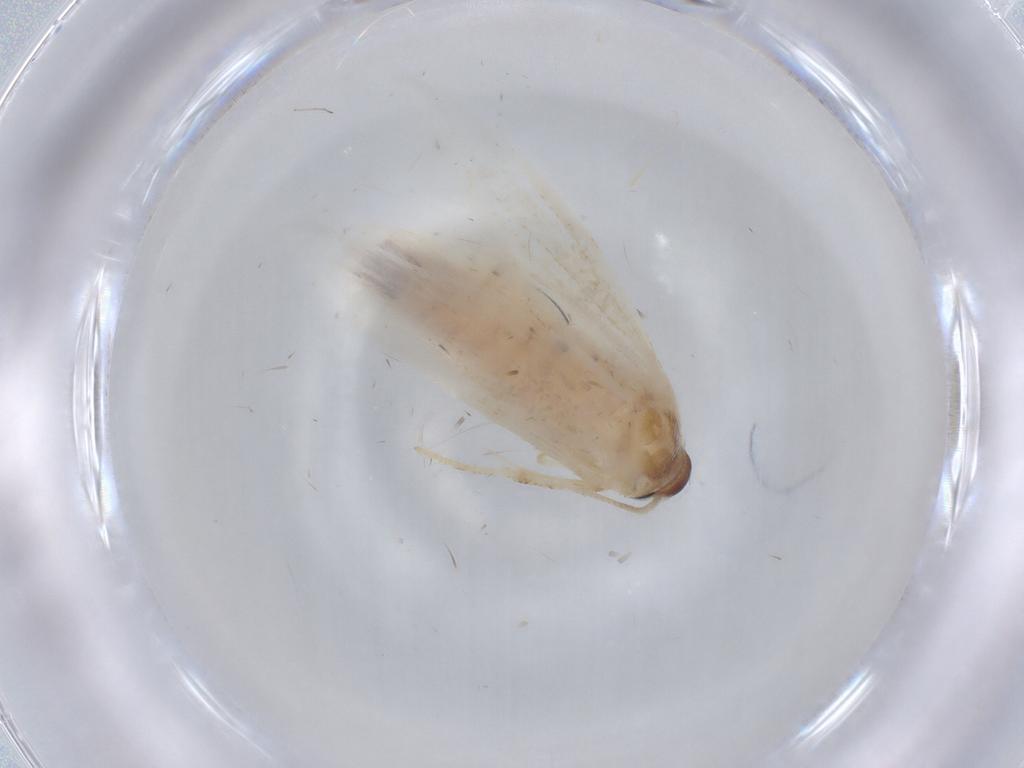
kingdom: Animalia
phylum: Arthropoda
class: Insecta
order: Lepidoptera
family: Blastobasidae
